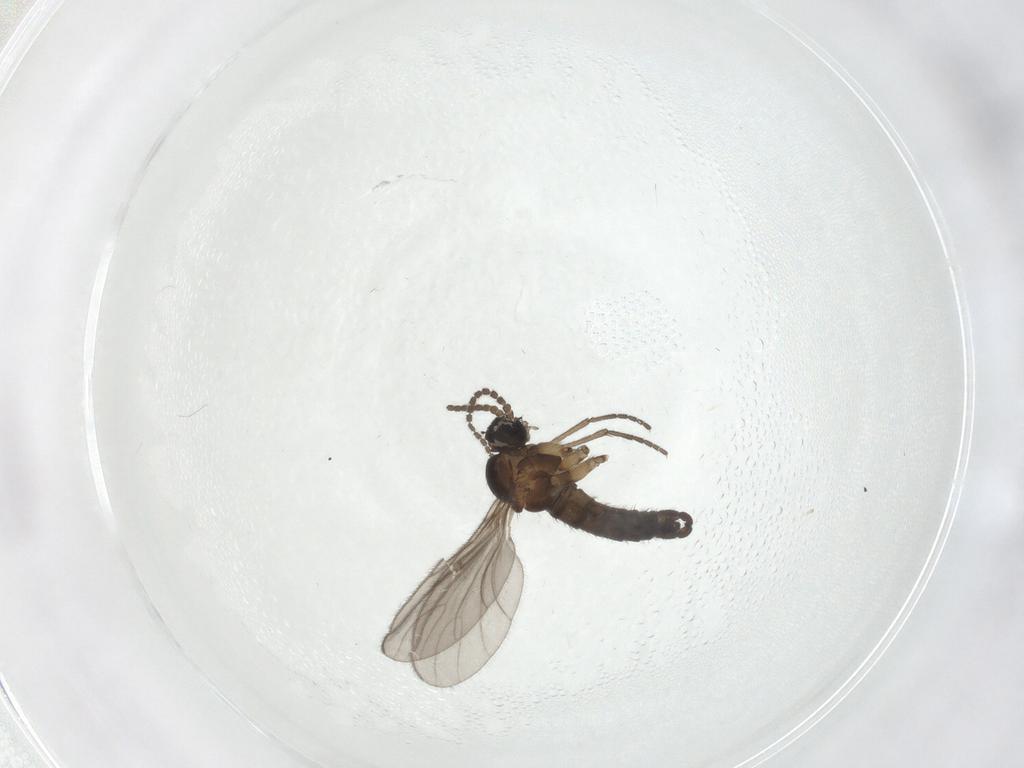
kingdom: Animalia
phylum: Arthropoda
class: Insecta
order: Diptera
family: Sciaridae
